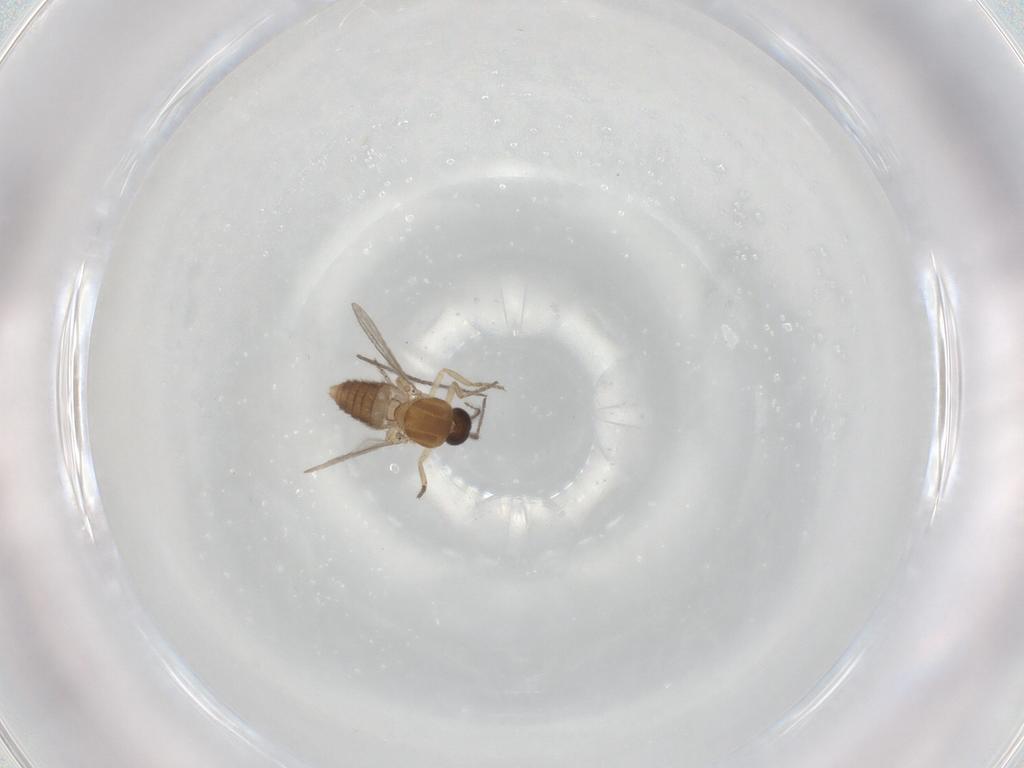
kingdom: Animalia
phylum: Arthropoda
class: Insecta
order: Diptera
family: Ceratopogonidae
